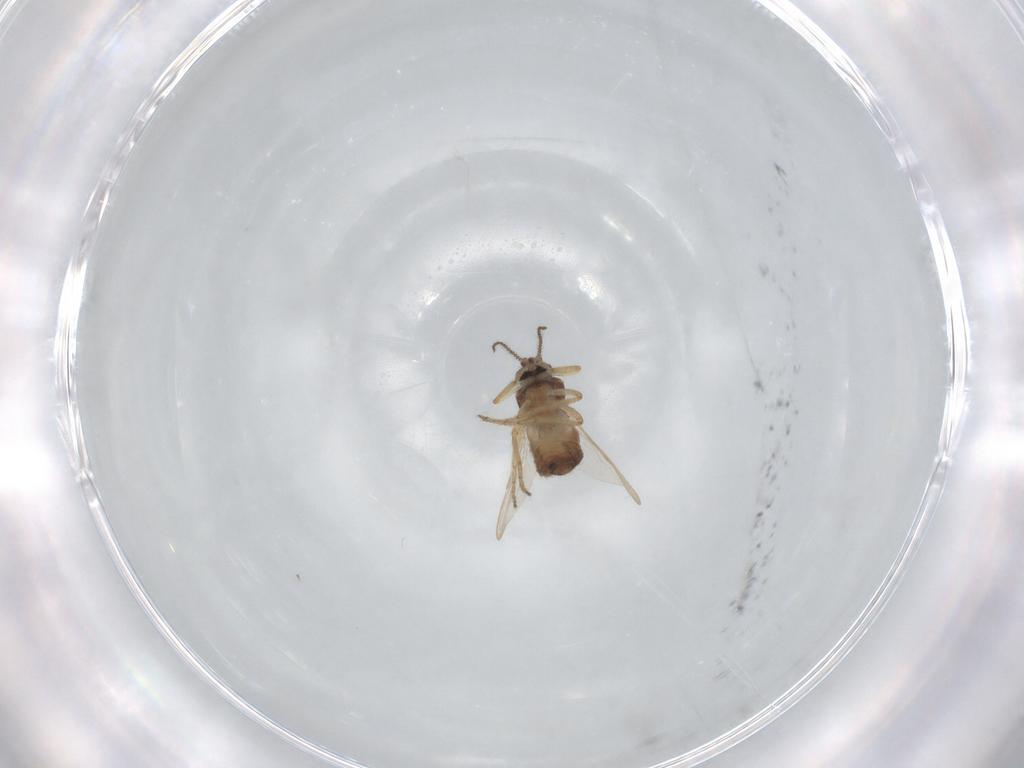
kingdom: Animalia
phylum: Arthropoda
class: Insecta
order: Diptera
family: Ceratopogonidae
